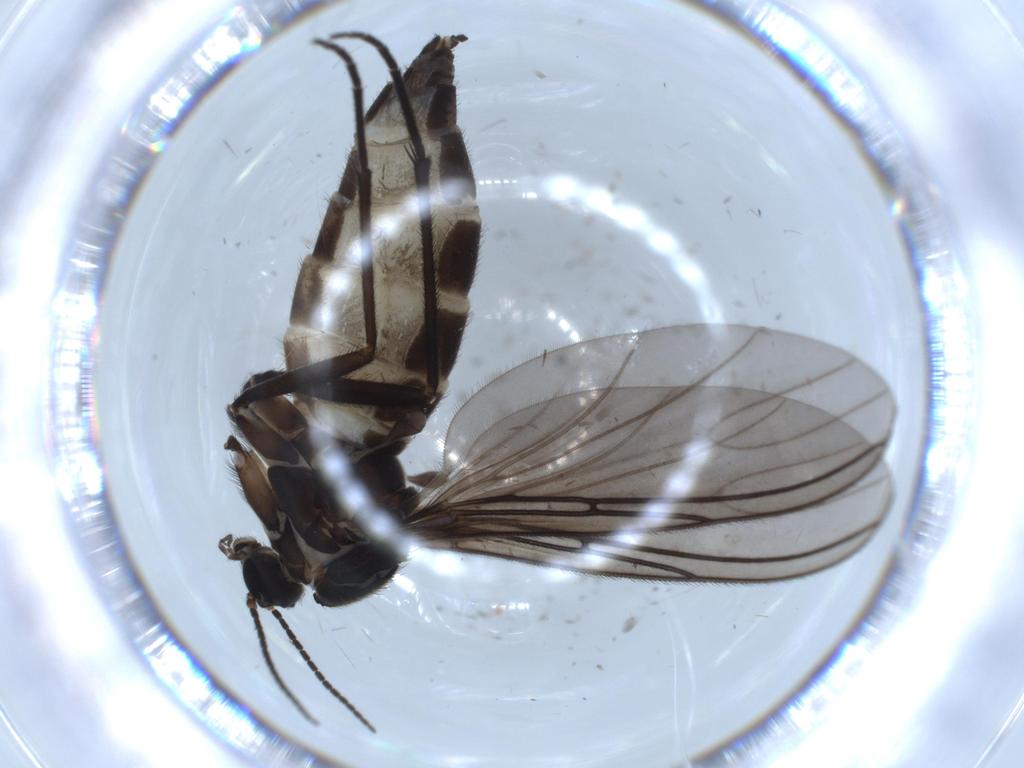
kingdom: Animalia
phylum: Arthropoda
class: Insecta
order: Diptera
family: Sciaridae
